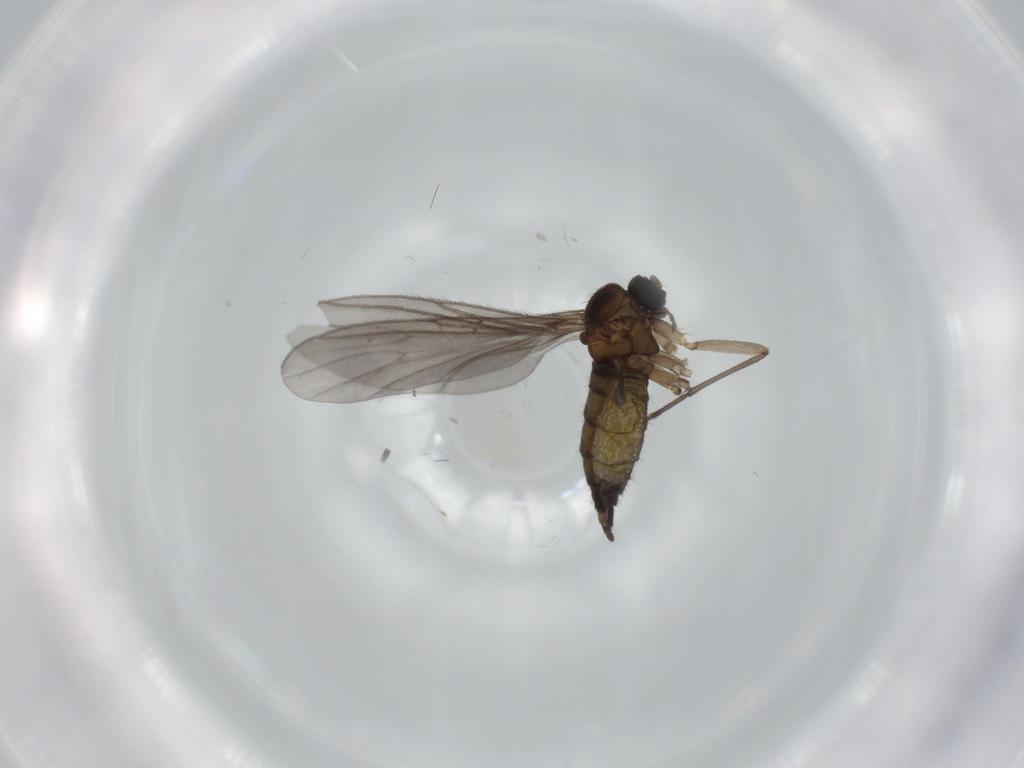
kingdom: Animalia
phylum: Arthropoda
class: Insecta
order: Diptera
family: Sciaridae
